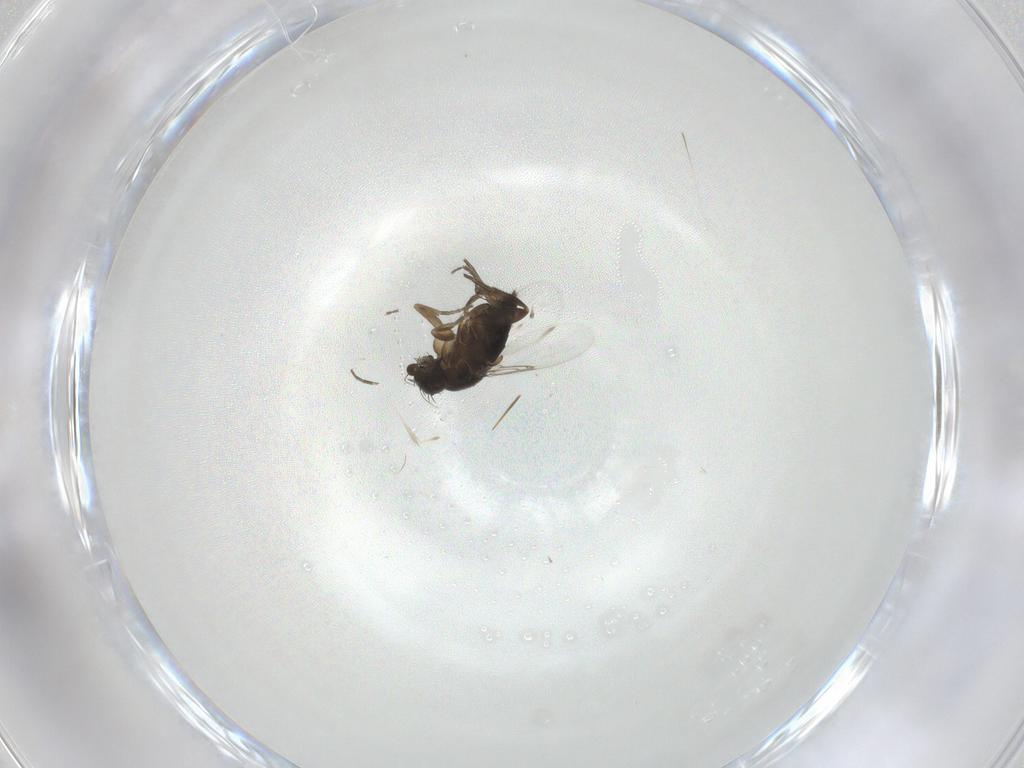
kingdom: Animalia
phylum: Arthropoda
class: Insecta
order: Diptera
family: Phoridae
